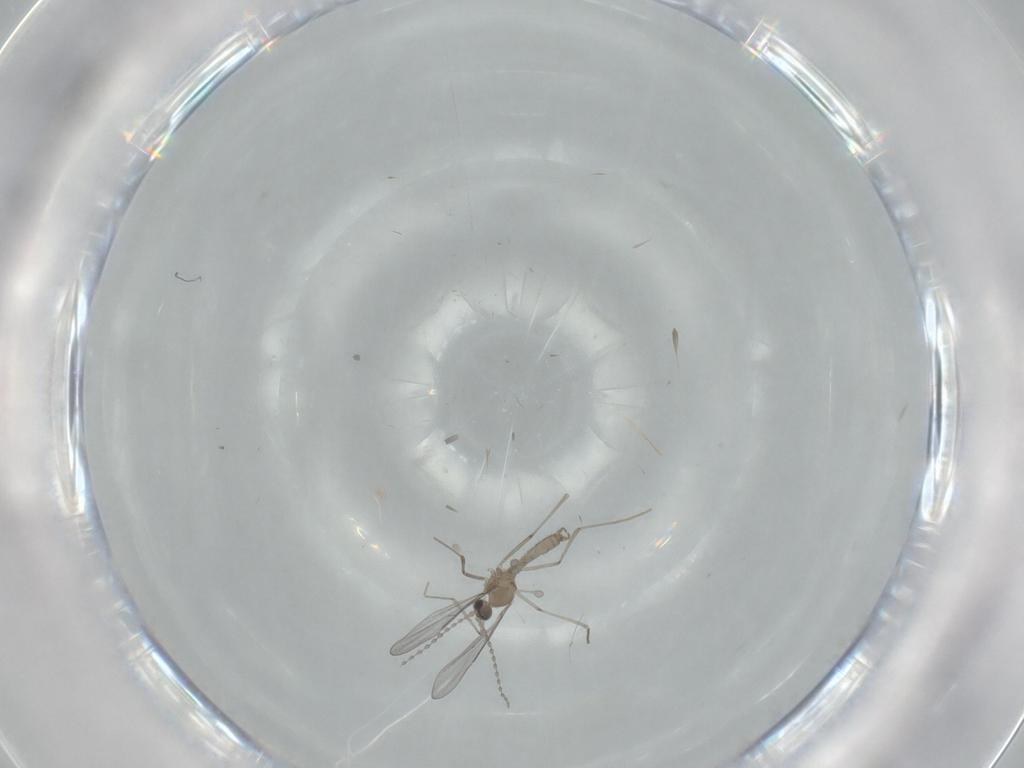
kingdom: Animalia
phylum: Arthropoda
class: Insecta
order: Diptera
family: Cecidomyiidae
